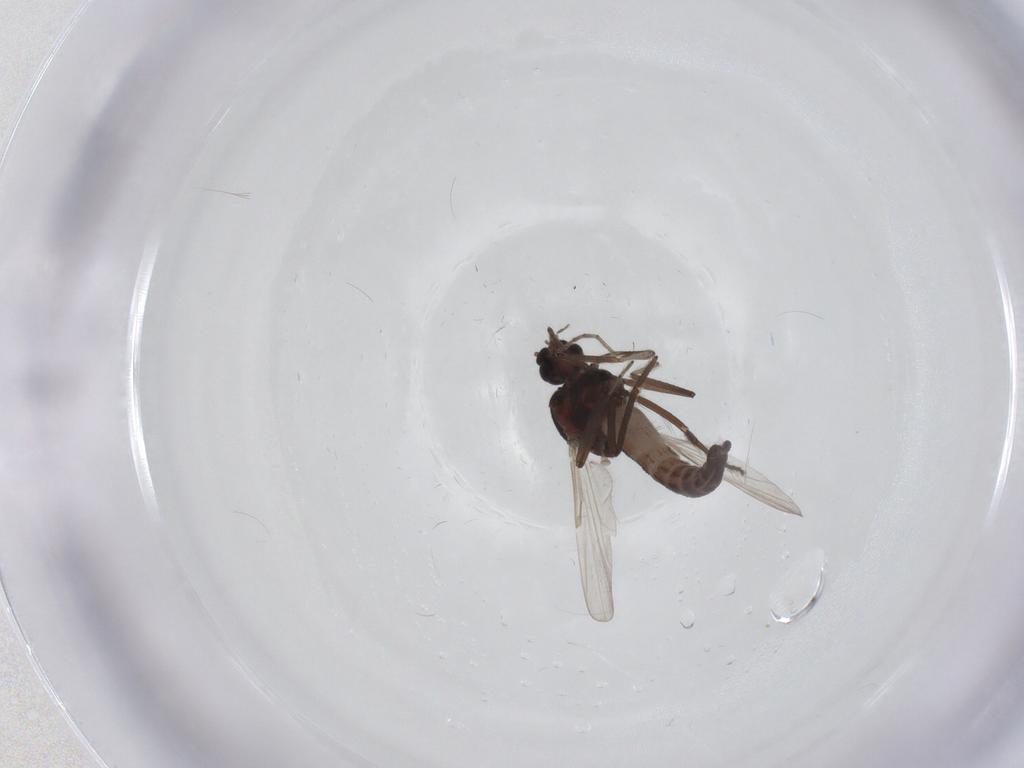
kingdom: Animalia
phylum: Arthropoda
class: Insecta
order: Diptera
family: Ceratopogonidae
